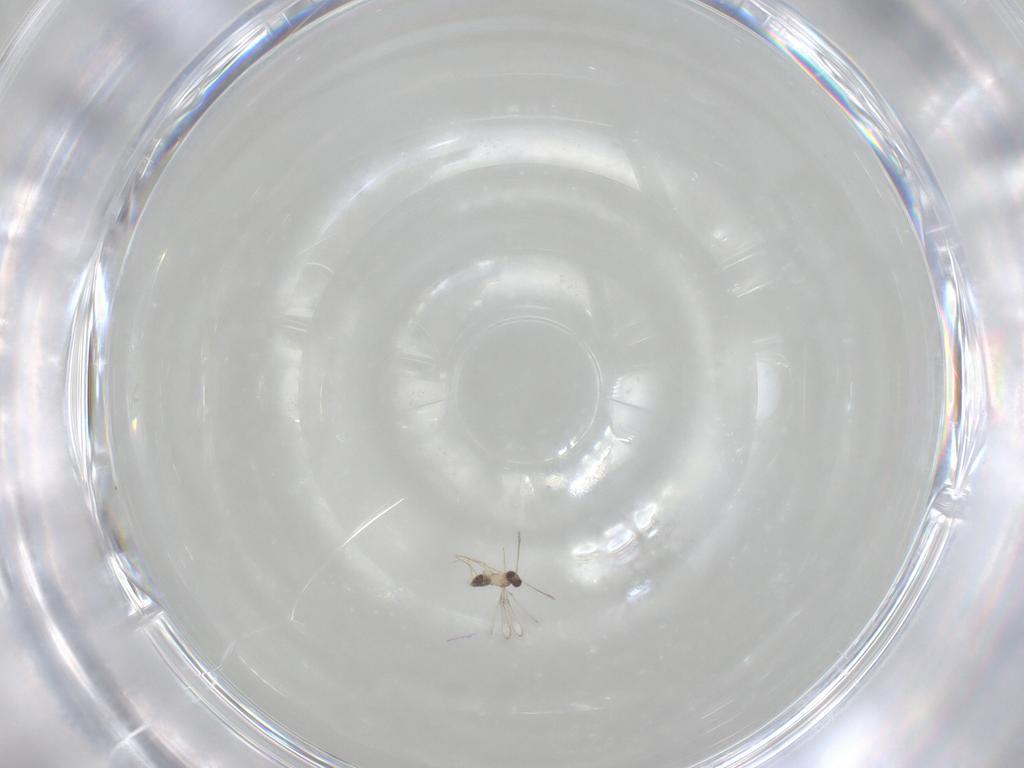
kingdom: Animalia
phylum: Arthropoda
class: Insecta
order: Hymenoptera
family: Mymaridae
